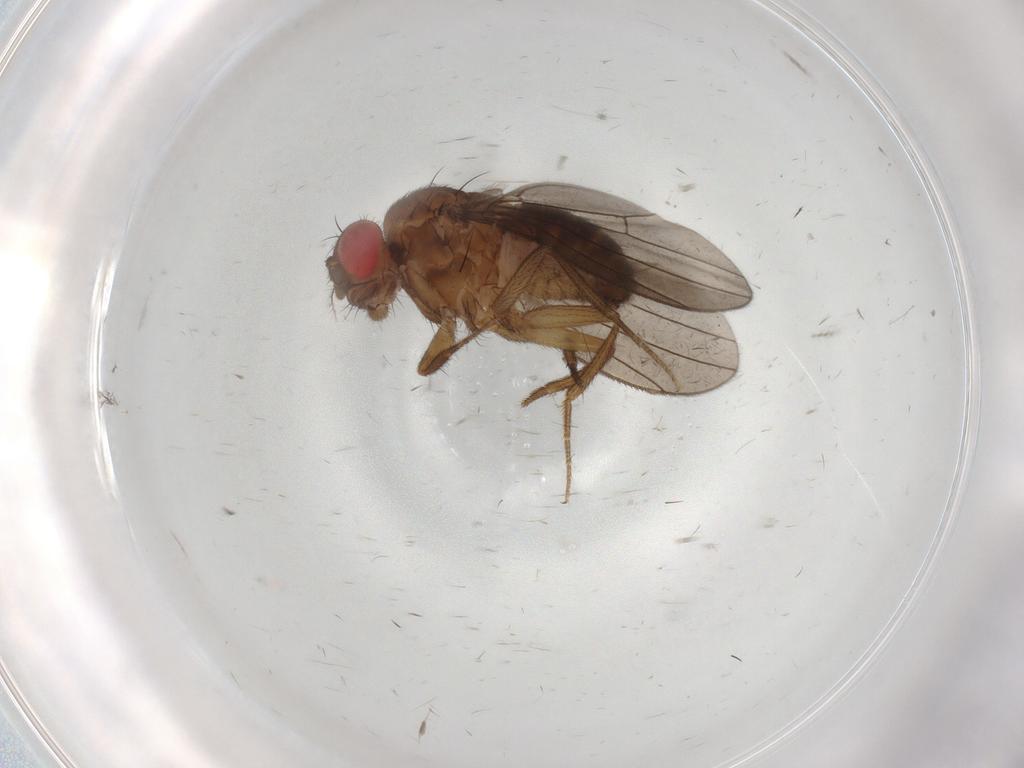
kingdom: Animalia
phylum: Arthropoda
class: Insecta
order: Diptera
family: Drosophilidae
